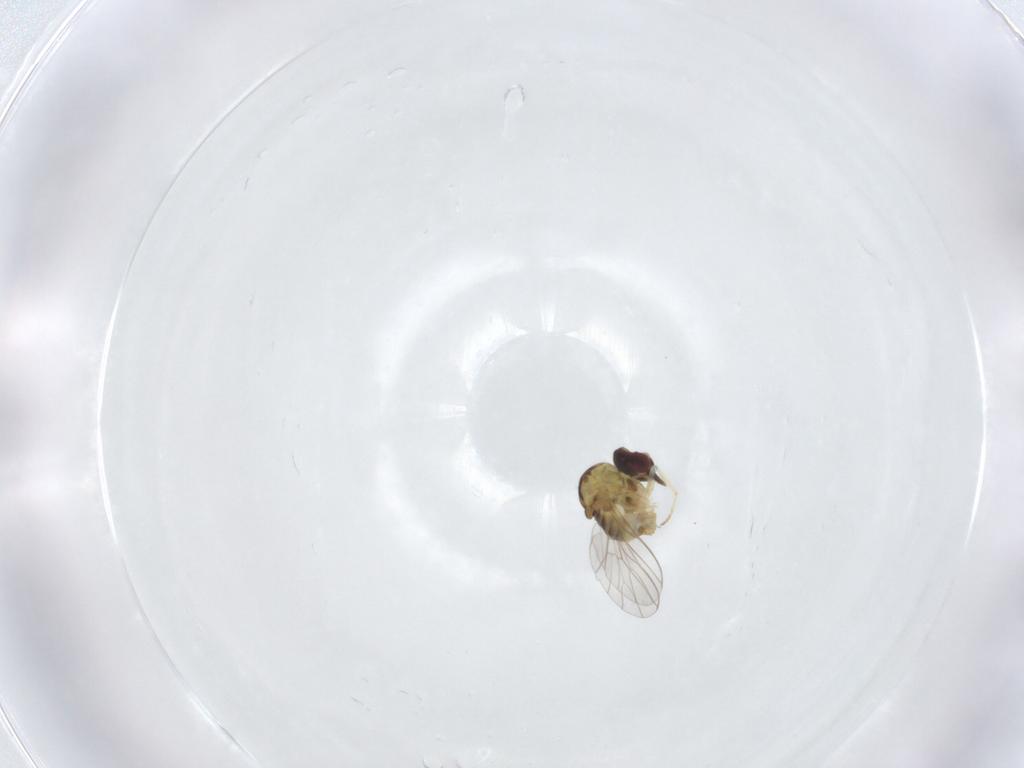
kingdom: Animalia
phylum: Arthropoda
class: Insecta
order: Diptera
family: Bombyliidae
